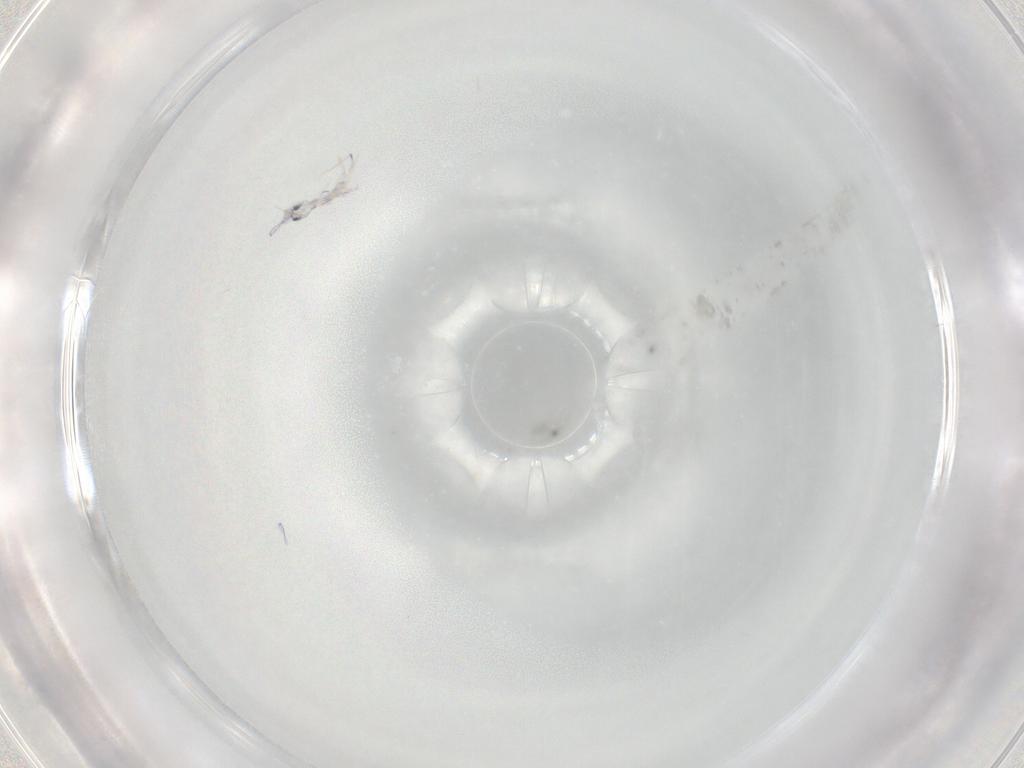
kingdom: Animalia
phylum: Arthropoda
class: Collembola
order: Entomobryomorpha
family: Entomobryidae
